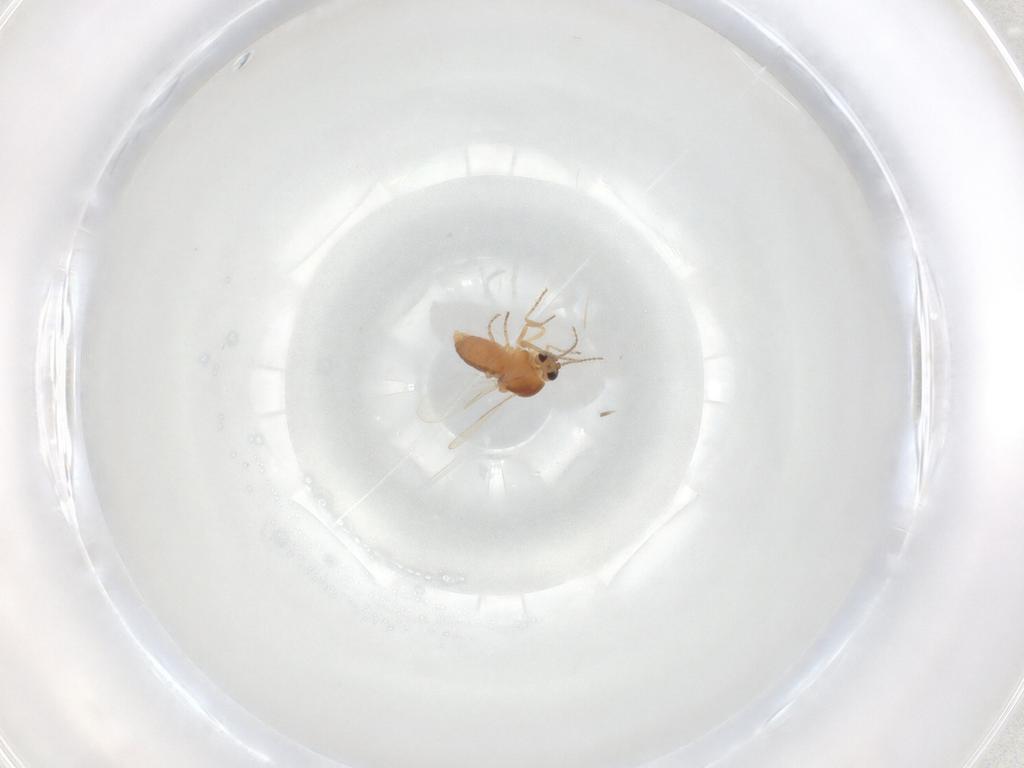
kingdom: Animalia
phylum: Arthropoda
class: Insecta
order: Diptera
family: Ceratopogonidae
